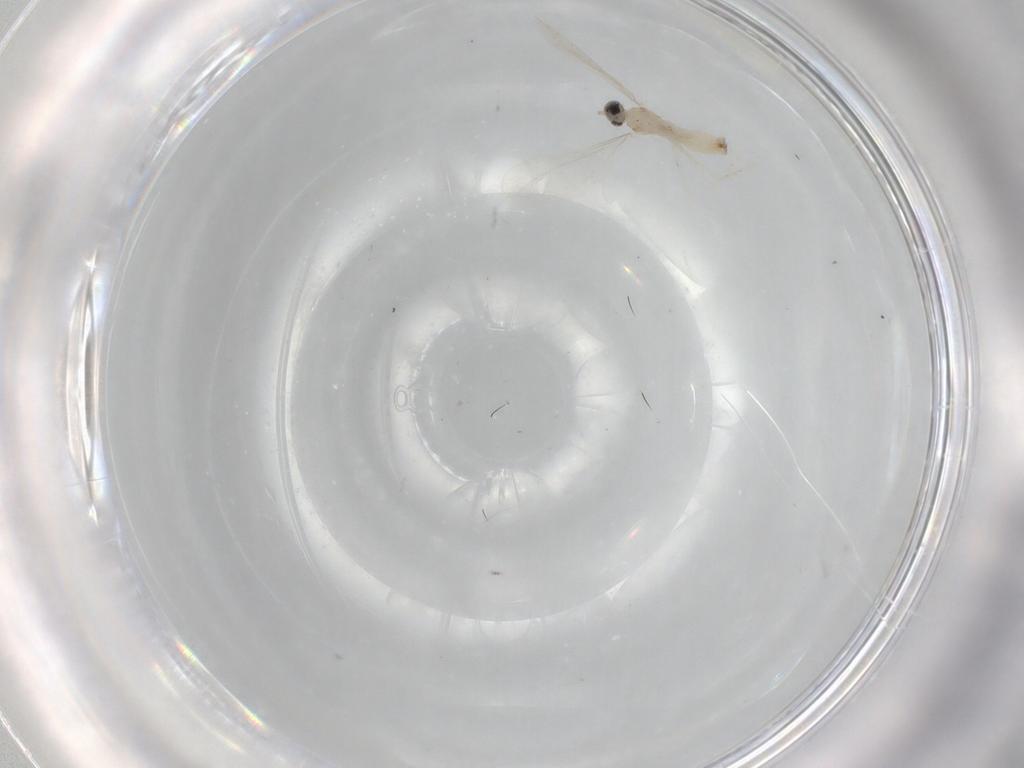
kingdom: Animalia
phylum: Arthropoda
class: Insecta
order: Diptera
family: Cecidomyiidae
